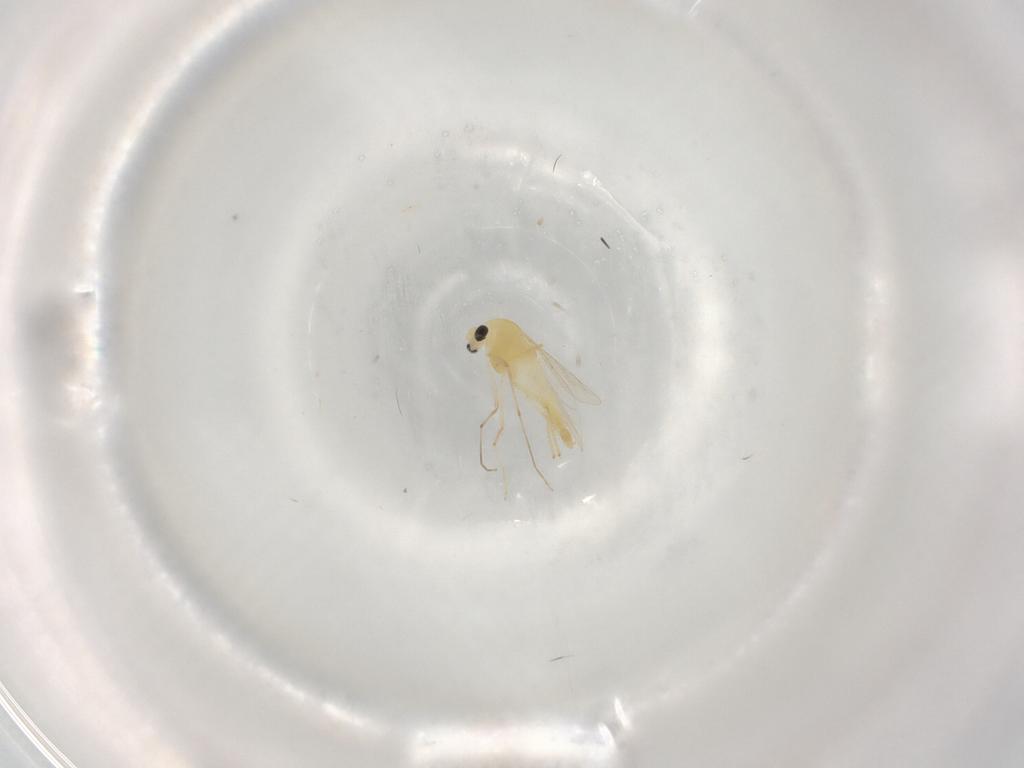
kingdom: Animalia
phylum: Arthropoda
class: Insecta
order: Diptera
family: Chironomidae
